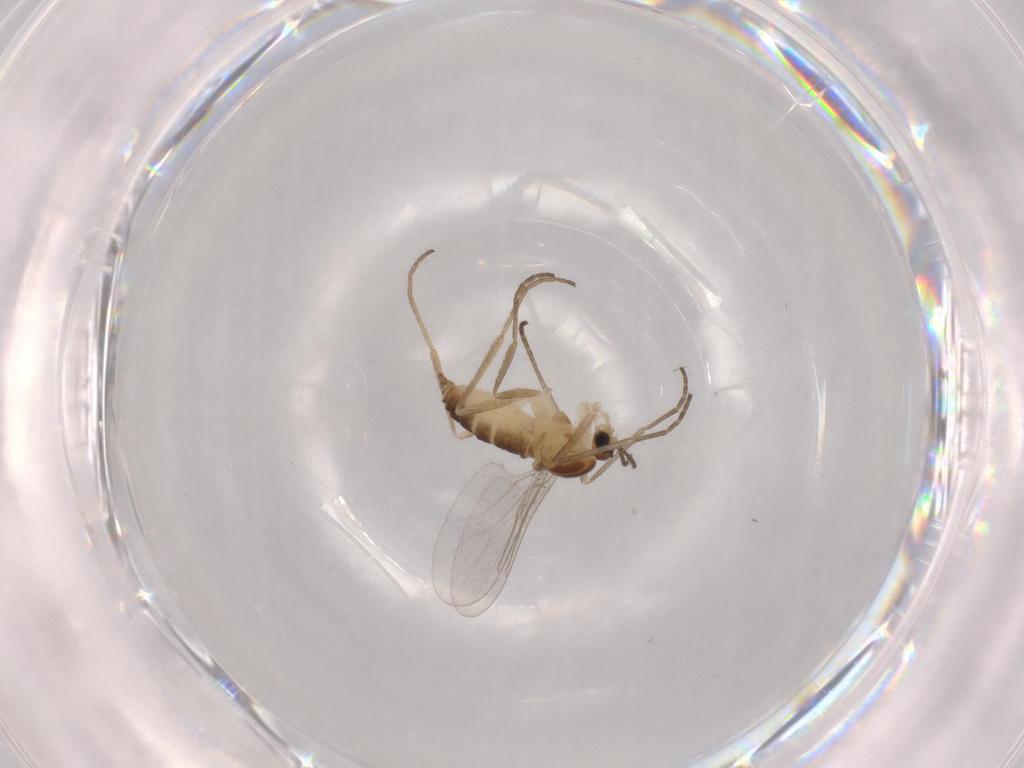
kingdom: Animalia
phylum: Arthropoda
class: Insecta
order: Diptera
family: Cecidomyiidae
